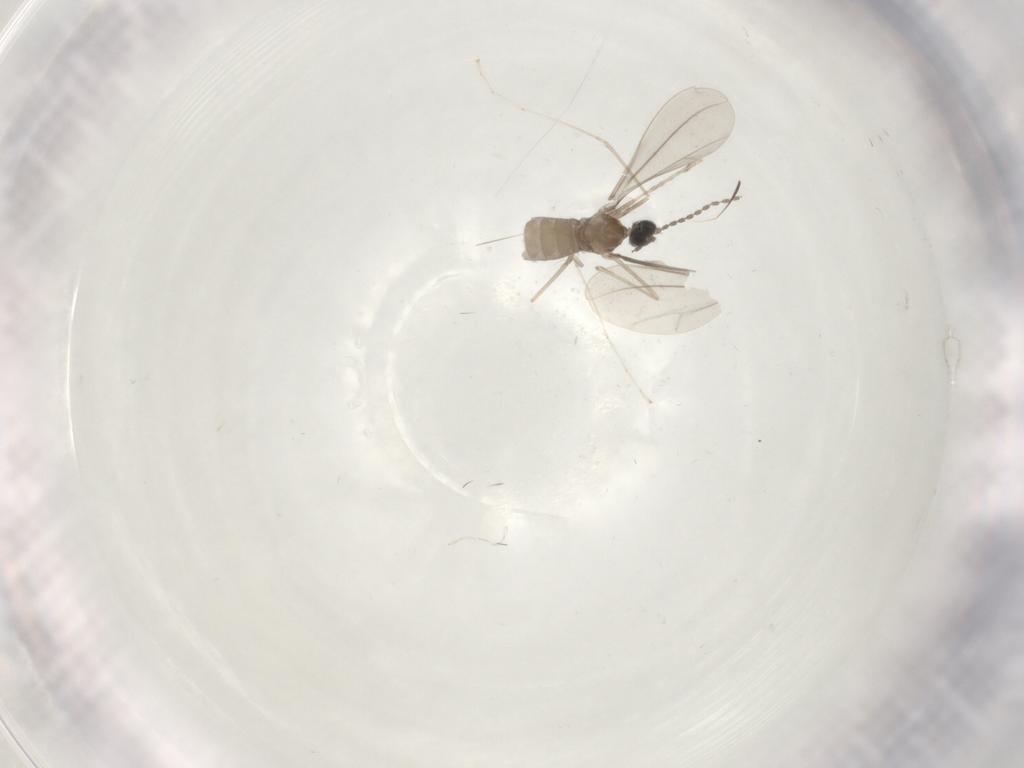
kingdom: Animalia
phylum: Arthropoda
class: Insecta
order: Diptera
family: Cecidomyiidae
